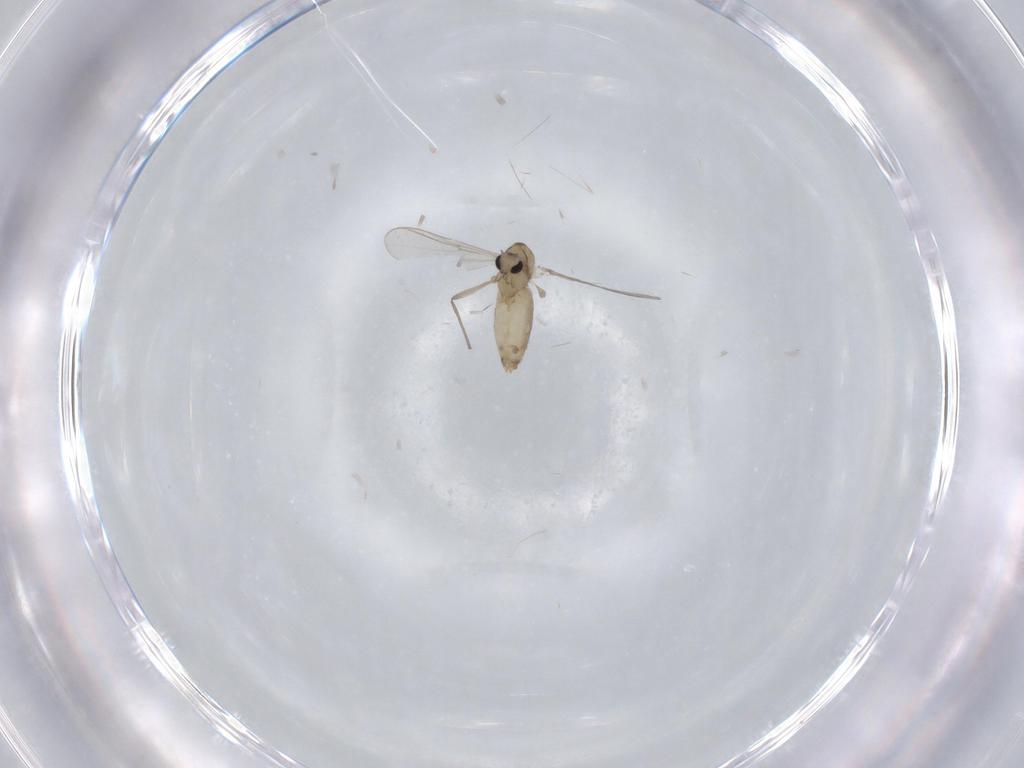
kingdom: Animalia
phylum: Arthropoda
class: Insecta
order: Diptera
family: Chironomidae
